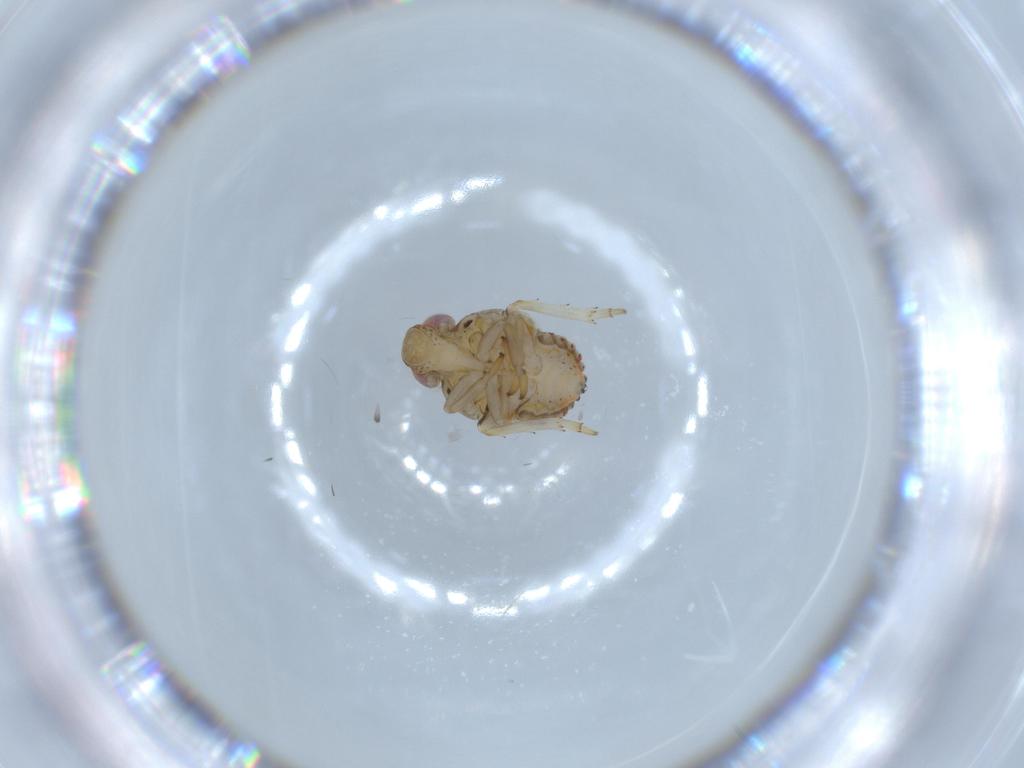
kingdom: Animalia
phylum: Arthropoda
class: Insecta
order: Hemiptera
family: Issidae
